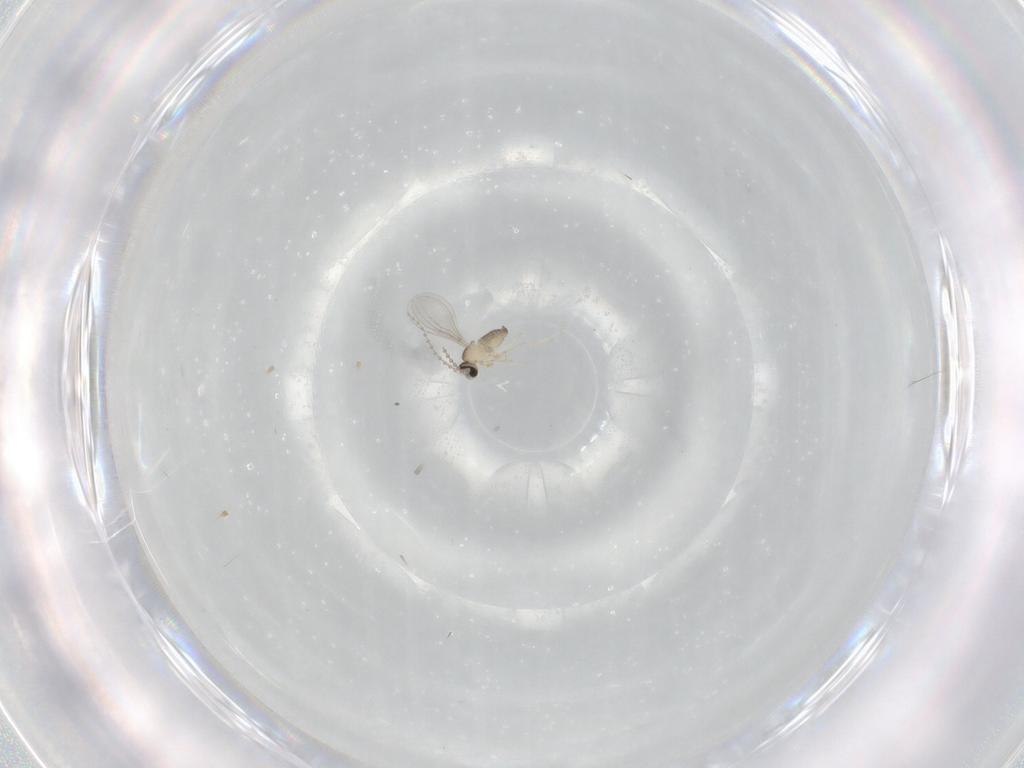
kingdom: Animalia
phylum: Arthropoda
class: Insecta
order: Diptera
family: Cecidomyiidae
